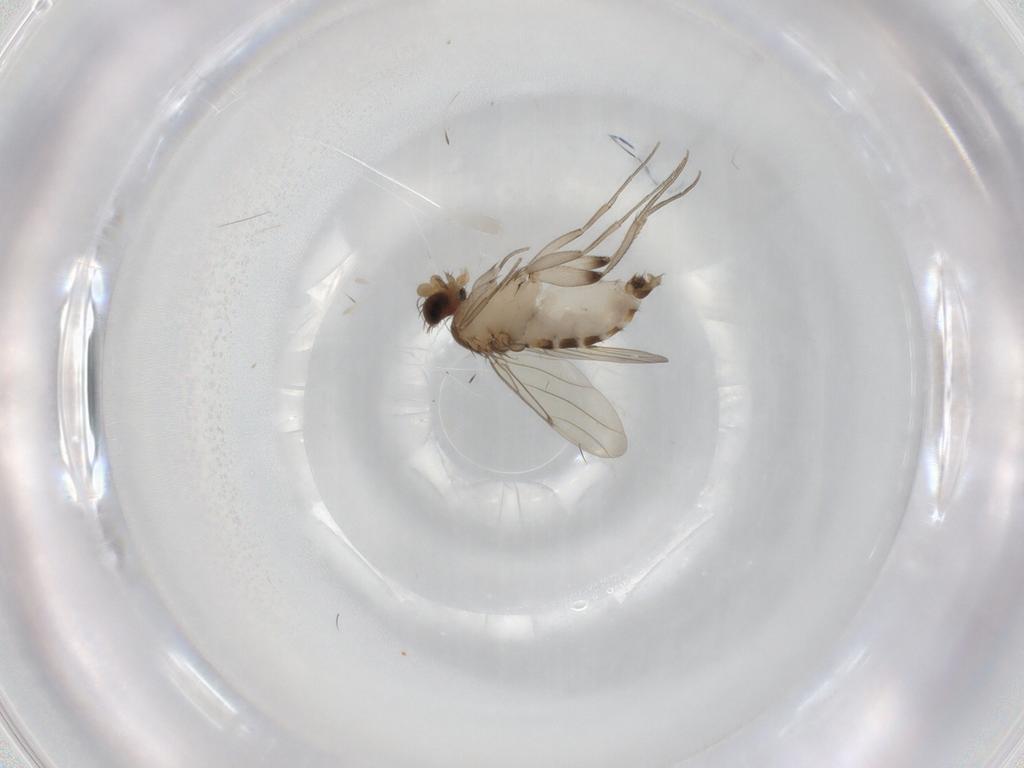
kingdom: Animalia
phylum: Arthropoda
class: Insecta
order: Diptera
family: Phoridae
